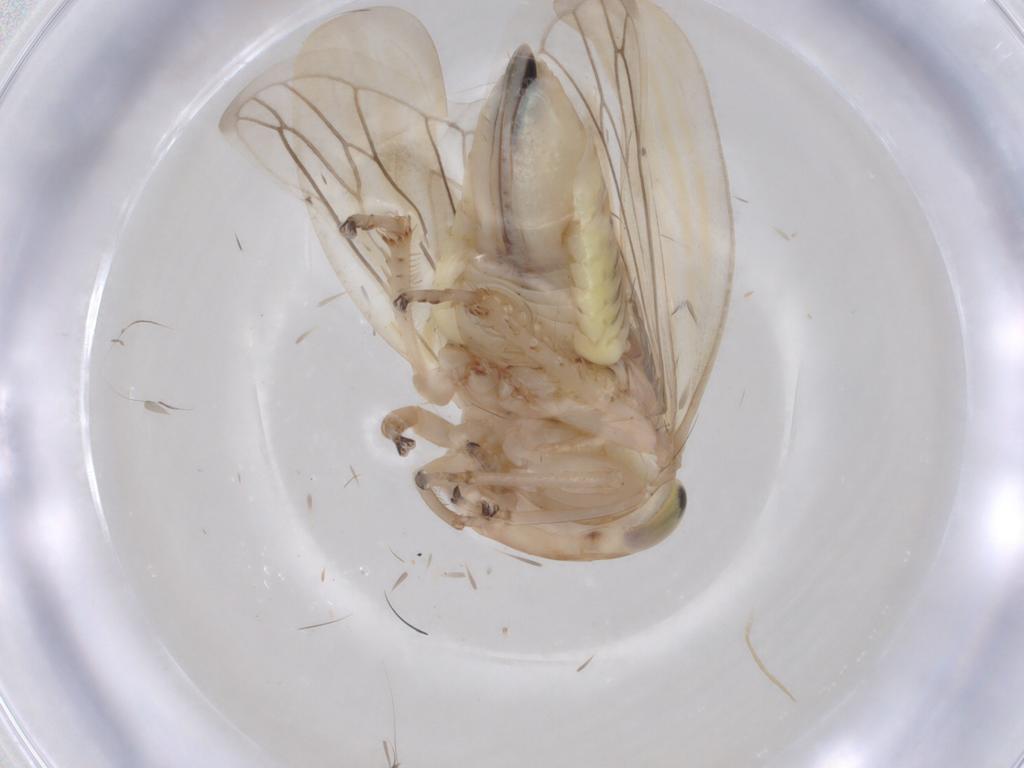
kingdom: Animalia
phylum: Arthropoda
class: Insecta
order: Hemiptera
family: Cicadellidae
